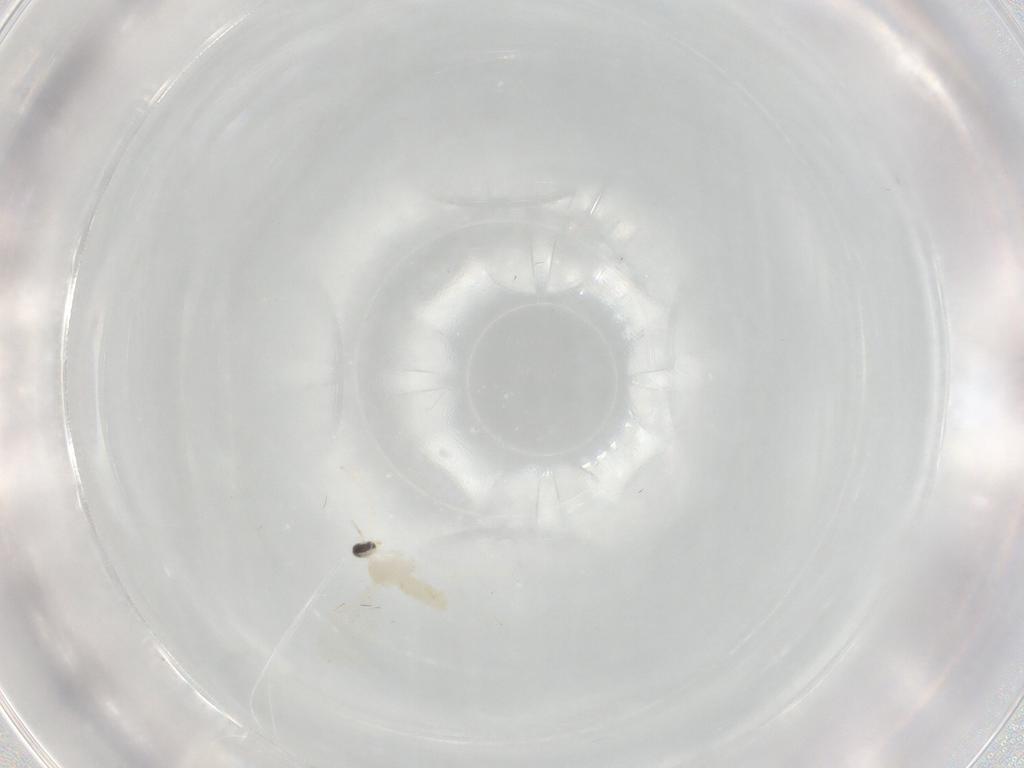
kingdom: Animalia
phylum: Arthropoda
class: Insecta
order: Diptera
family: Tabanidae
